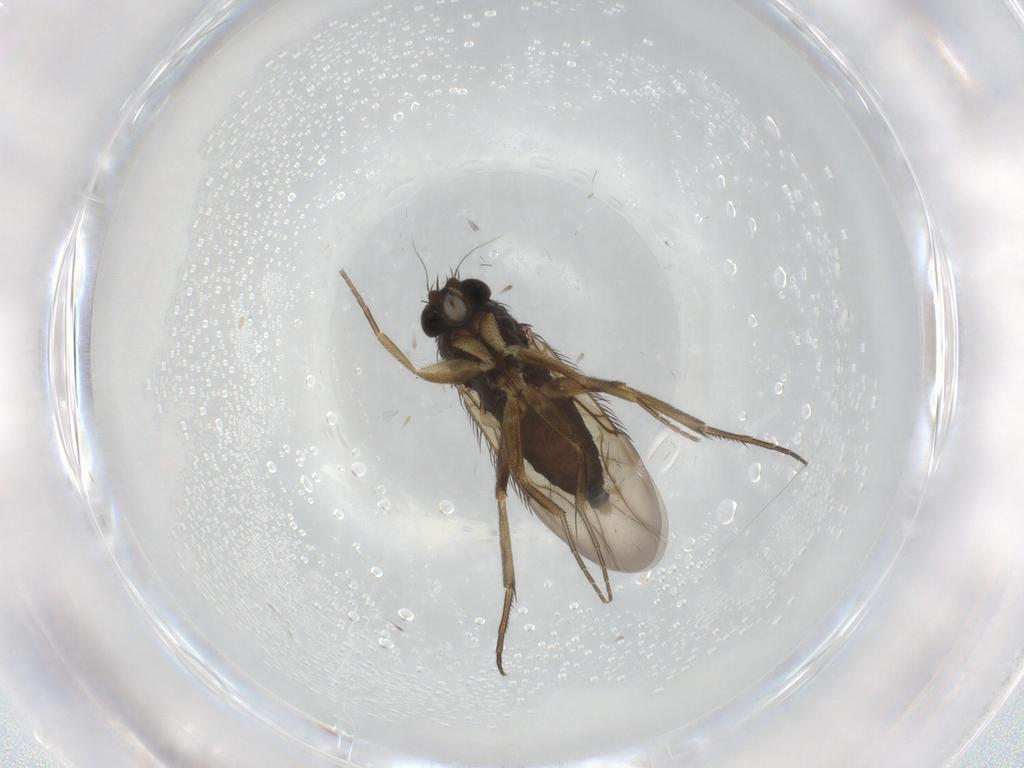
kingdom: Animalia
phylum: Arthropoda
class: Insecta
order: Diptera
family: Phoridae
